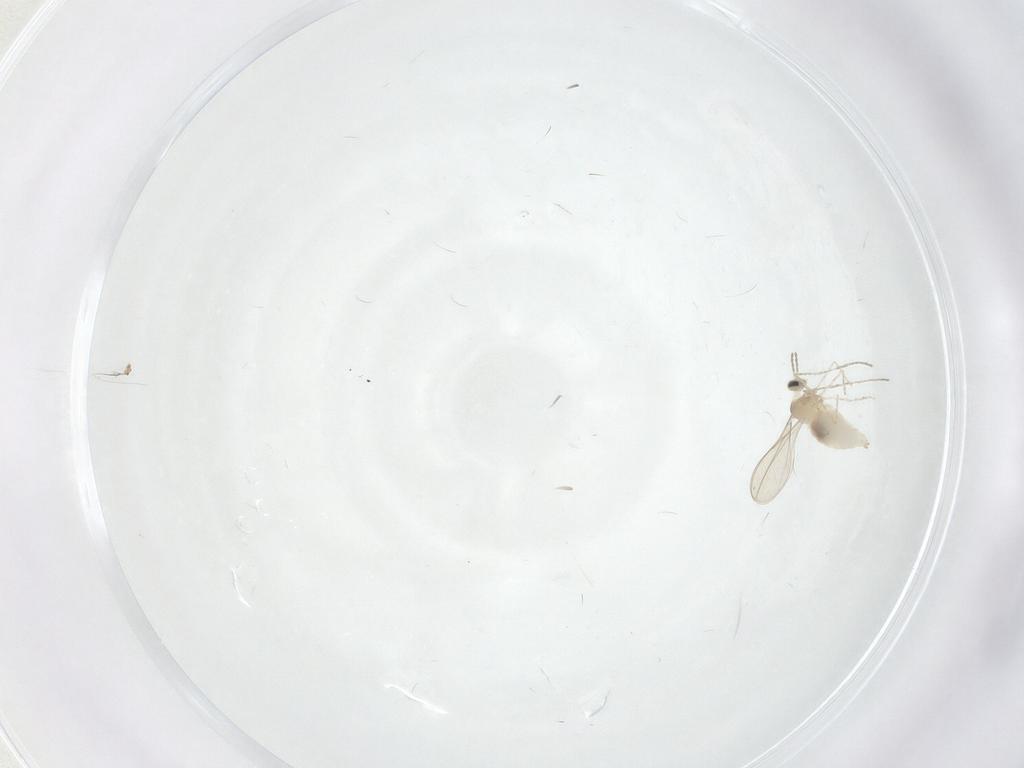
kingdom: Animalia
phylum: Arthropoda
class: Insecta
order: Diptera
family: Cecidomyiidae
